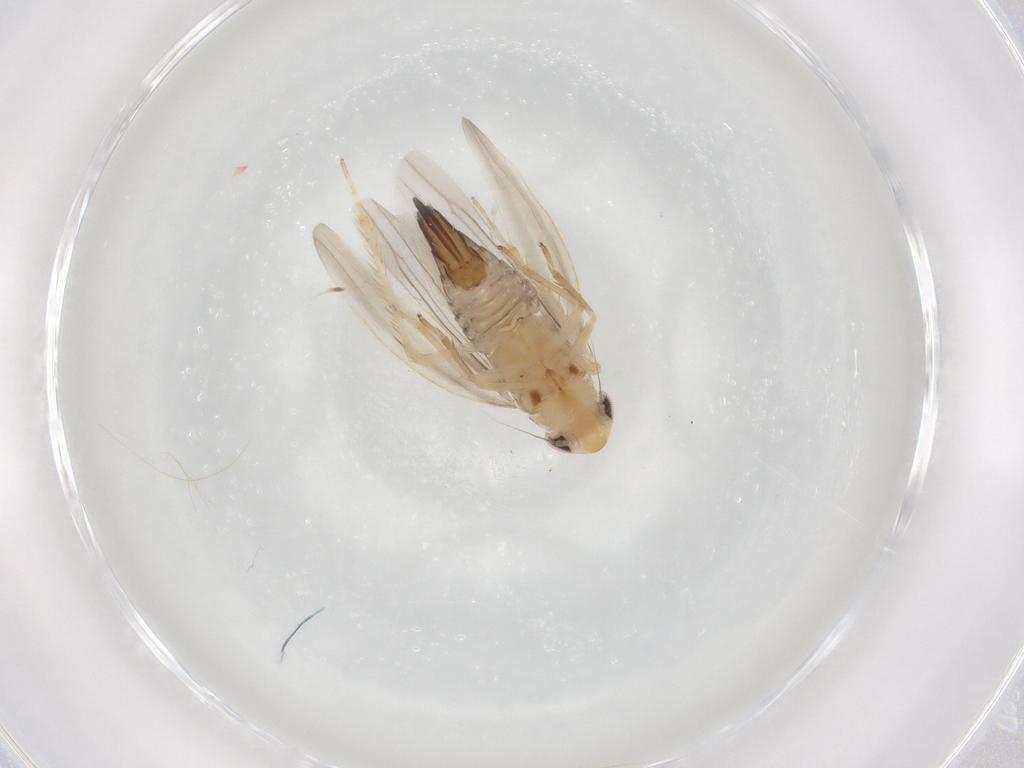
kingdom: Animalia
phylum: Arthropoda
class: Insecta
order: Hemiptera
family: Cicadellidae
